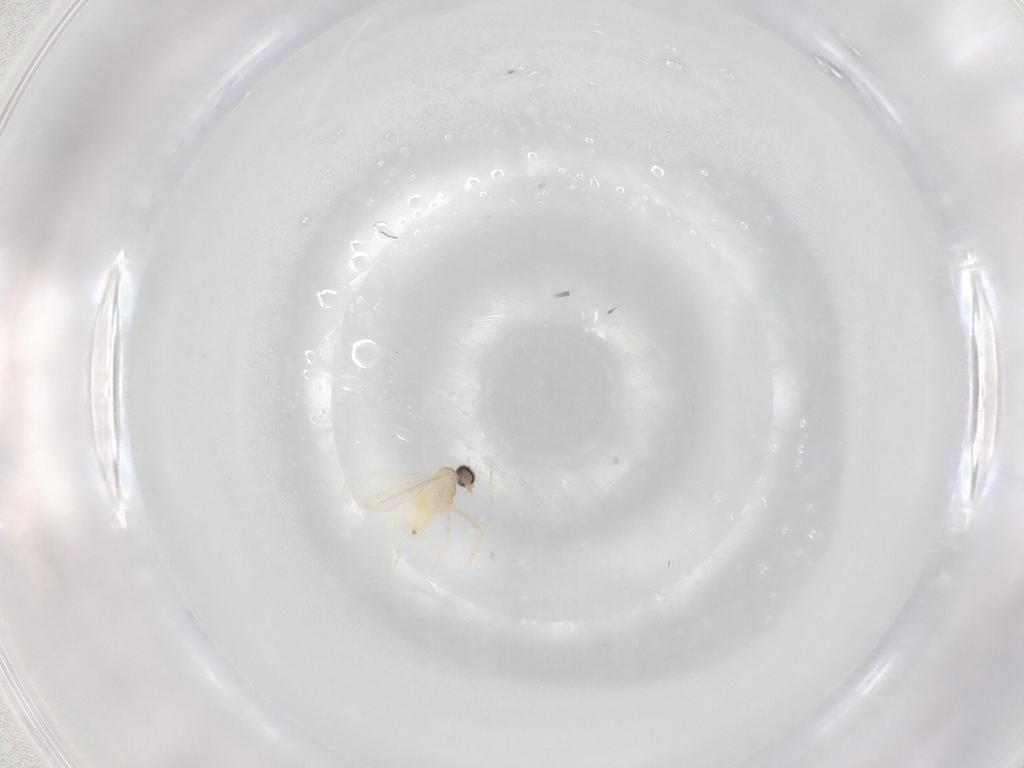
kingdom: Animalia
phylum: Arthropoda
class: Insecta
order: Diptera
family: Cecidomyiidae
